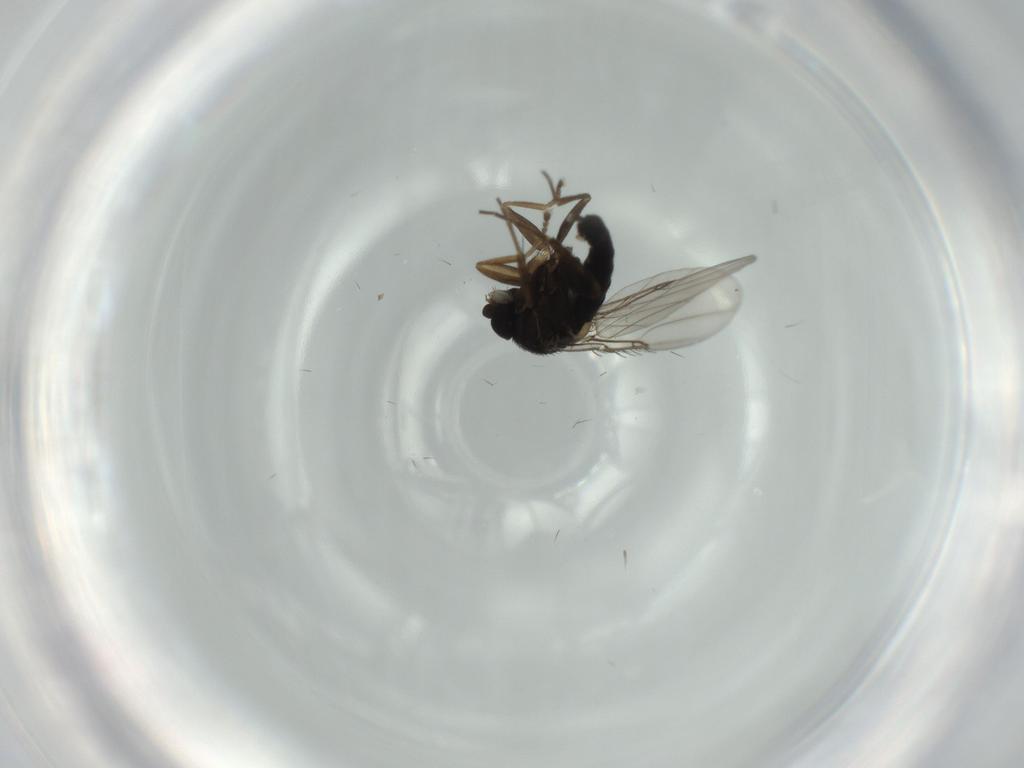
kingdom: Animalia
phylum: Arthropoda
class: Insecta
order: Diptera
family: Phoridae
